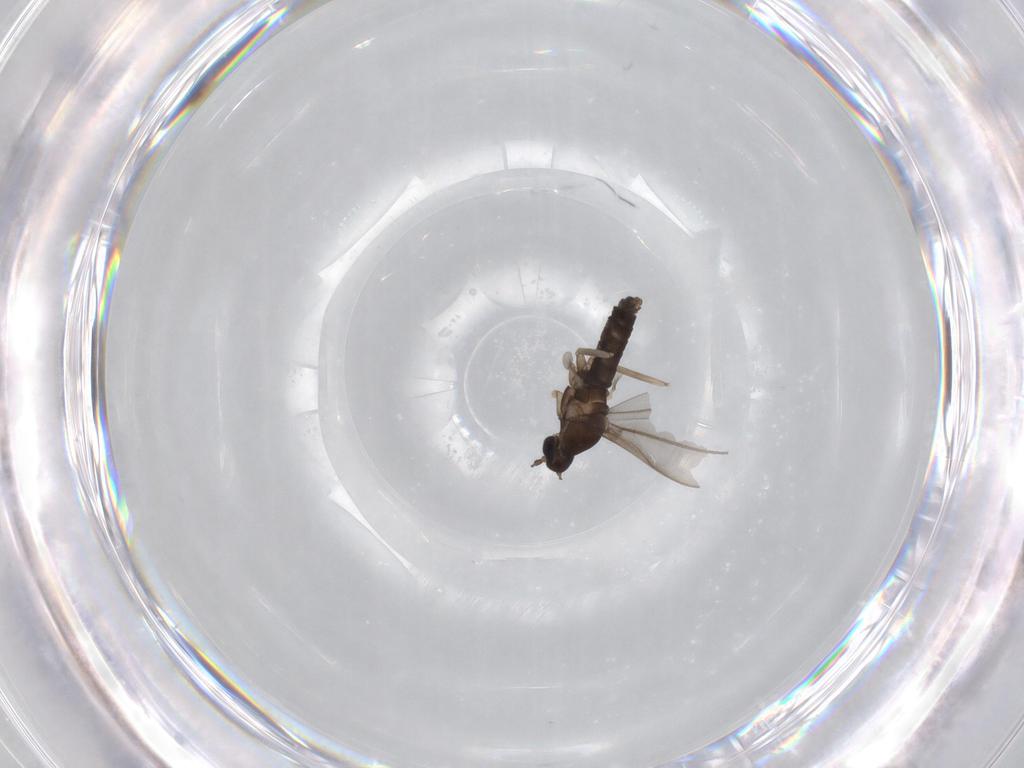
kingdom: Animalia
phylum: Arthropoda
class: Insecta
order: Diptera
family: Cecidomyiidae
